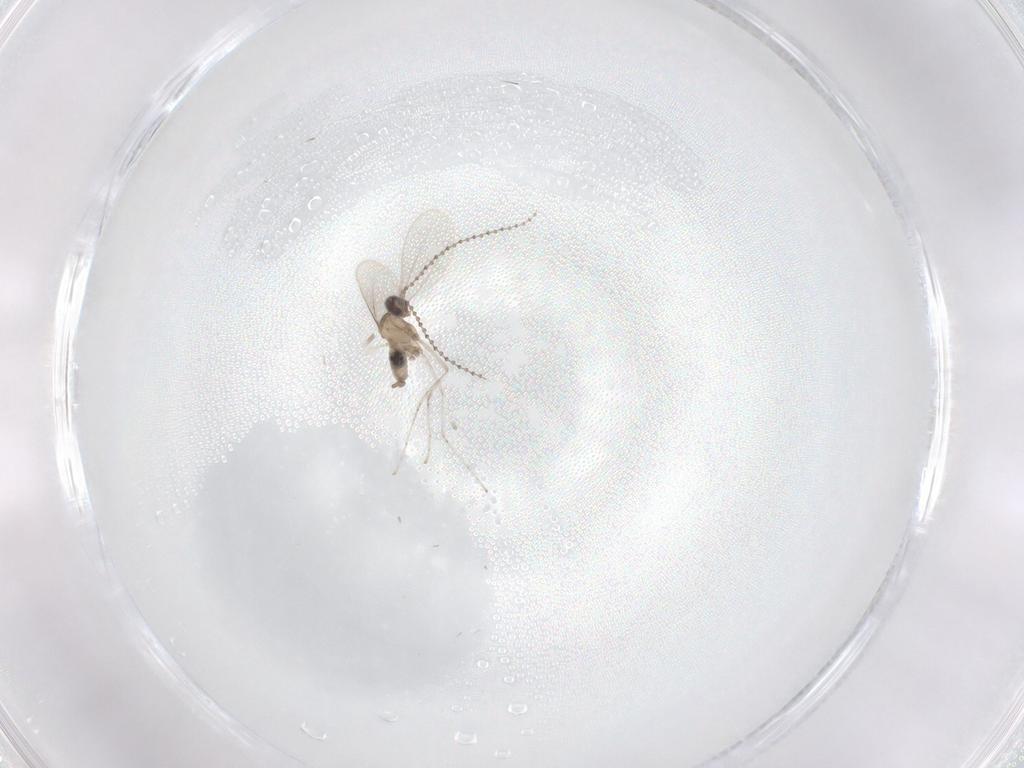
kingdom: Animalia
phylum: Arthropoda
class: Insecta
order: Diptera
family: Cecidomyiidae
